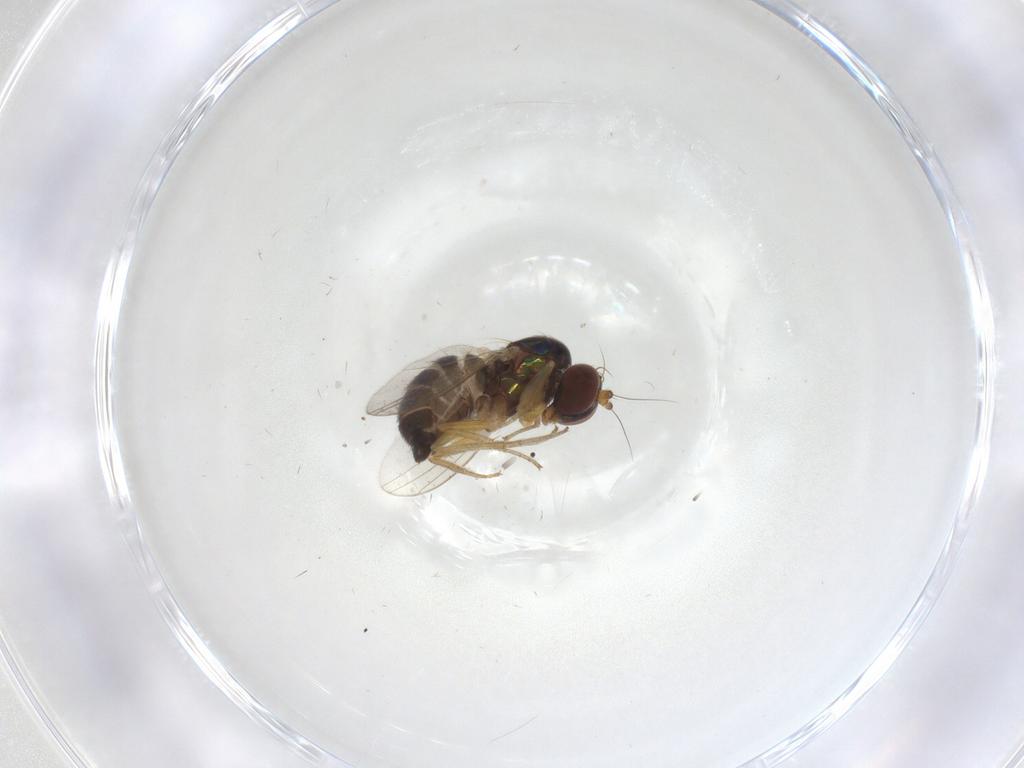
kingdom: Animalia
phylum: Arthropoda
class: Insecta
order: Diptera
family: Dolichopodidae
